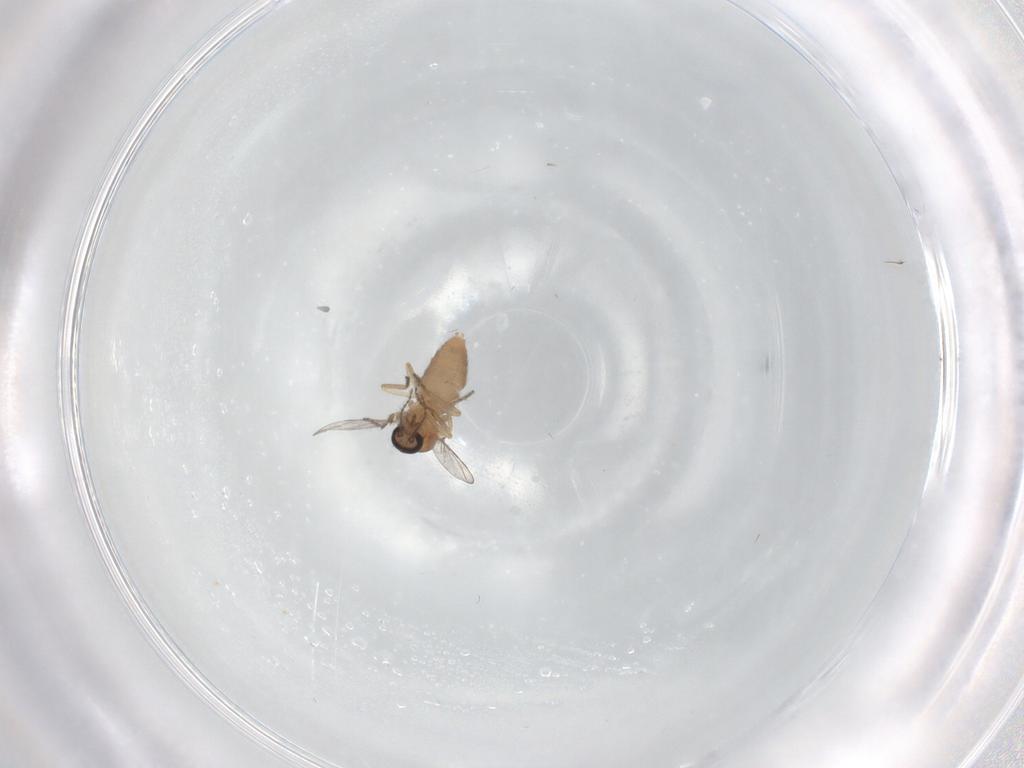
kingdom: Animalia
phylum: Arthropoda
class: Insecta
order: Diptera
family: Ceratopogonidae
